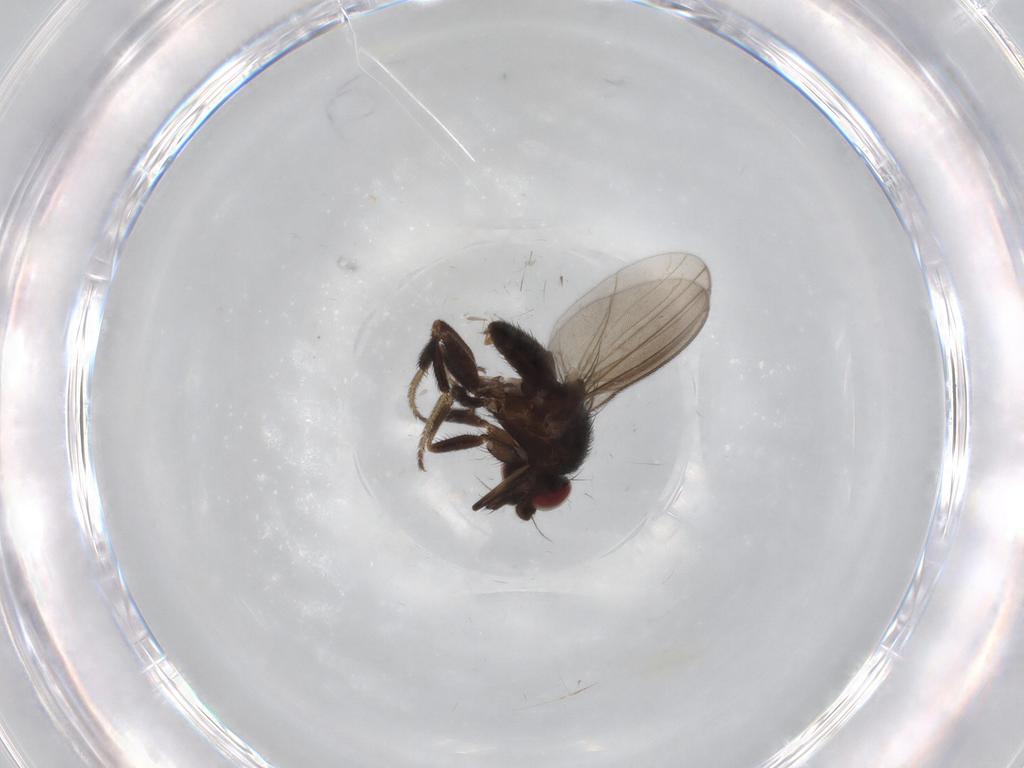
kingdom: Animalia
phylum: Arthropoda
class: Insecta
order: Diptera
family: Milichiidae
